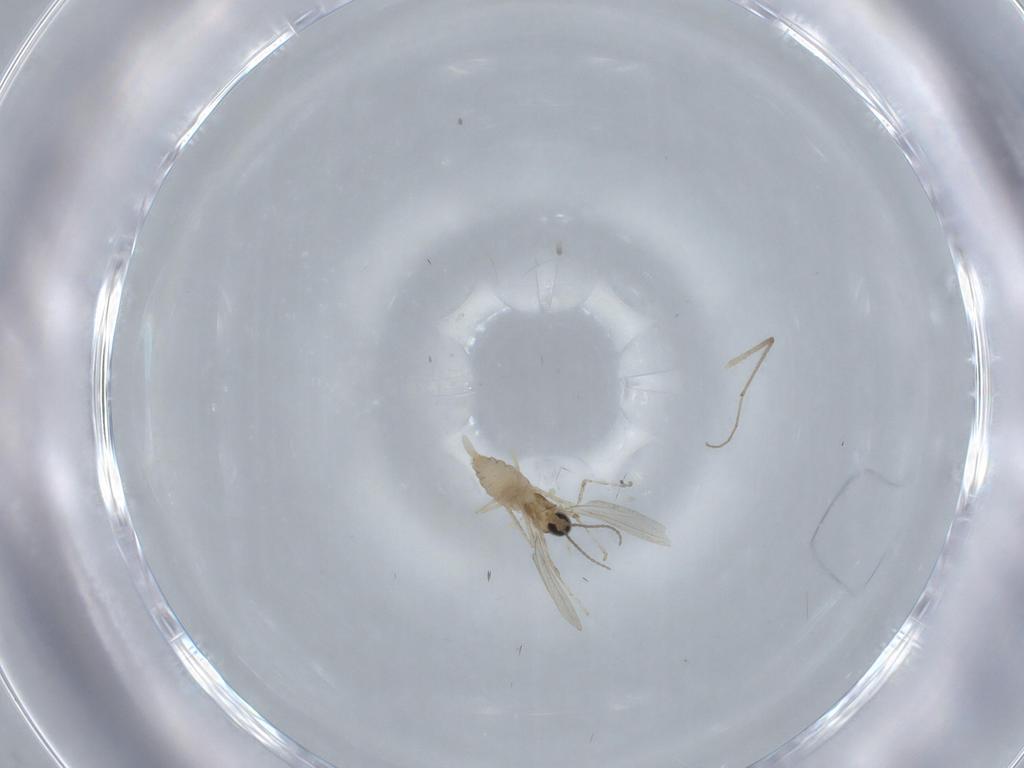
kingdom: Animalia
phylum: Arthropoda
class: Insecta
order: Diptera
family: Chironomidae
